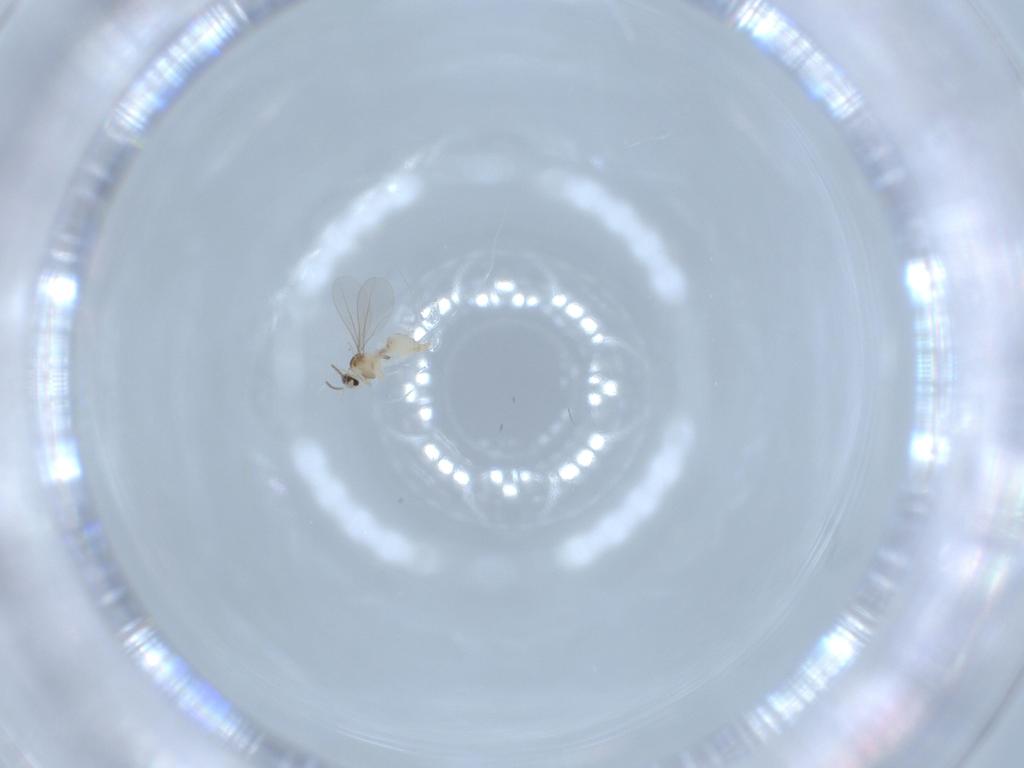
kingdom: Animalia
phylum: Arthropoda
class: Insecta
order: Diptera
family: Cecidomyiidae
